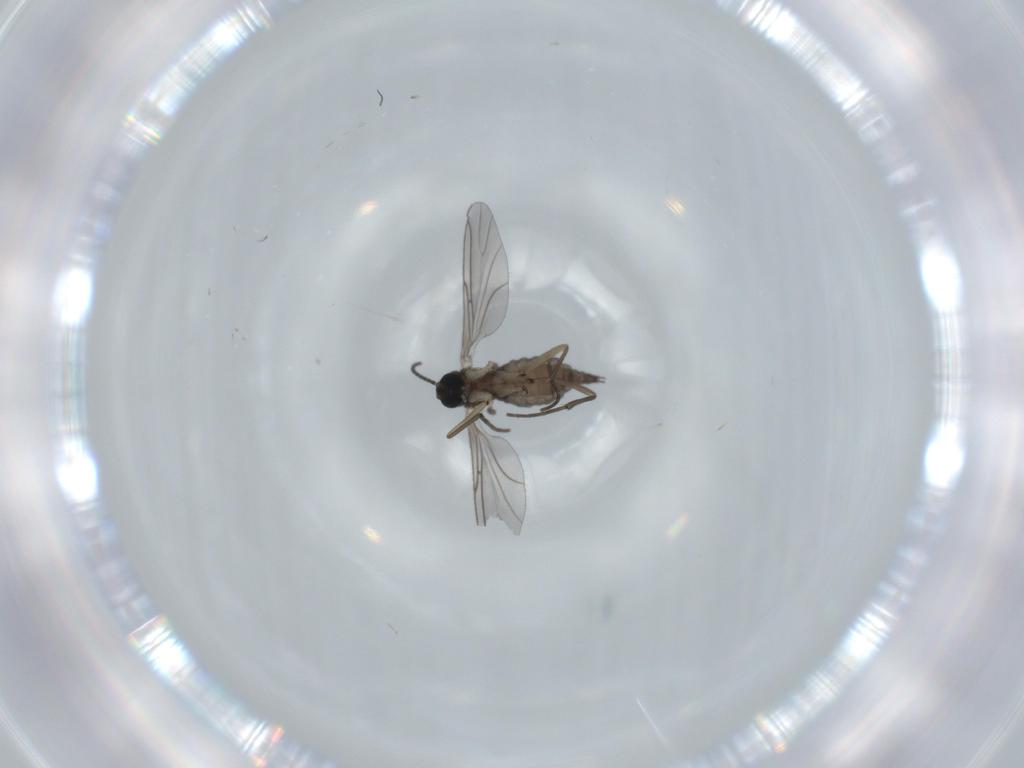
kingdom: Animalia
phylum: Arthropoda
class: Insecta
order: Diptera
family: Sciaridae
